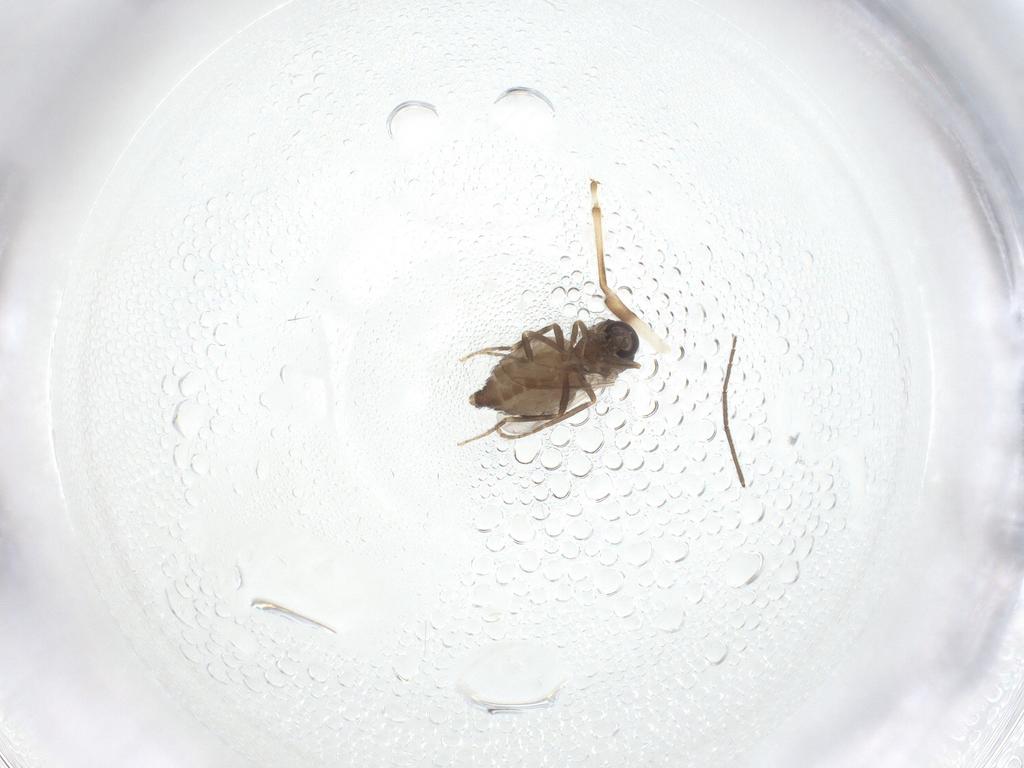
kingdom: Animalia
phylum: Arthropoda
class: Insecta
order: Diptera
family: Ceratopogonidae
